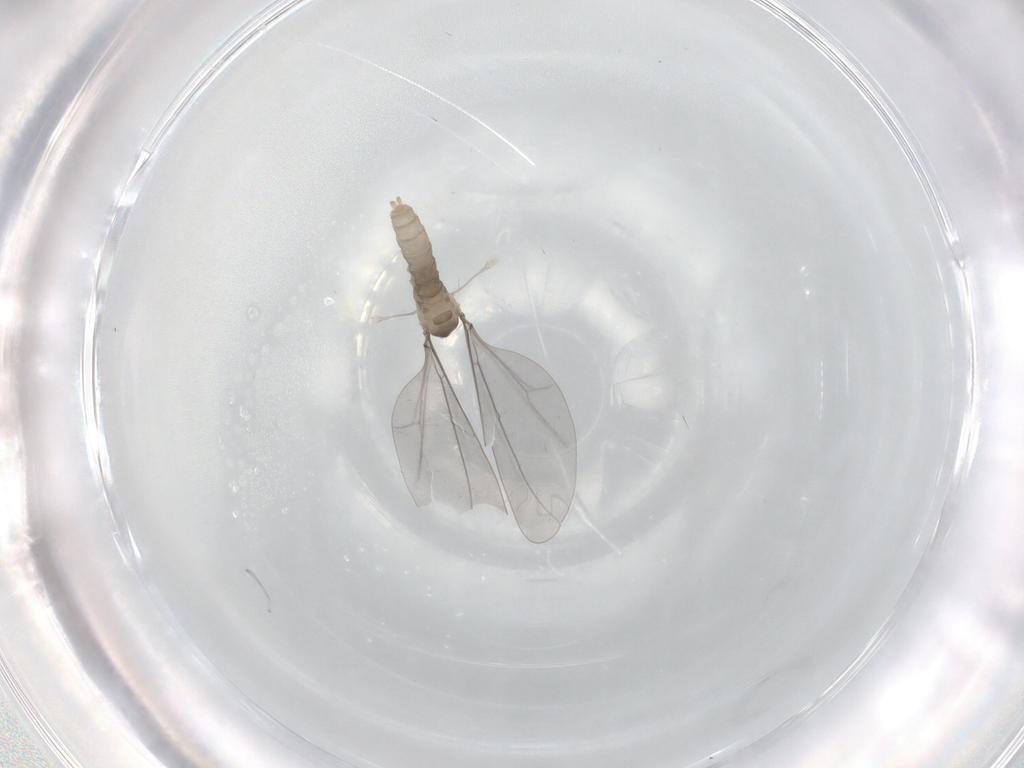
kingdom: Animalia
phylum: Arthropoda
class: Insecta
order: Diptera
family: Cecidomyiidae
